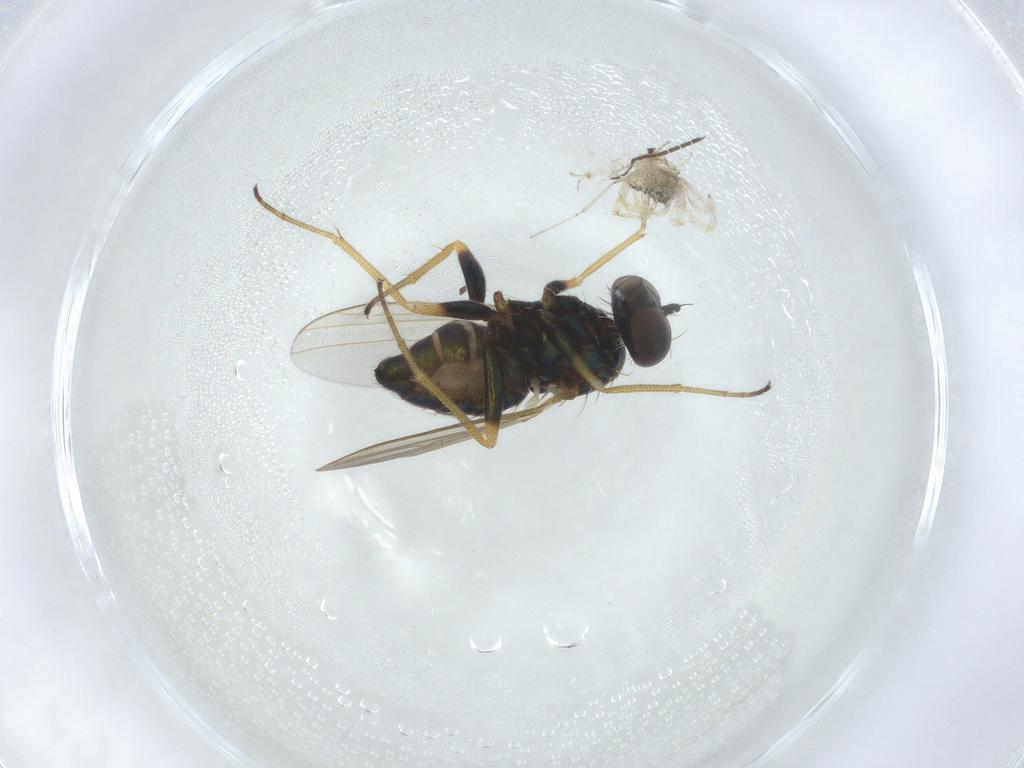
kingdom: Animalia
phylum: Arthropoda
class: Insecta
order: Diptera
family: Dolichopodidae
